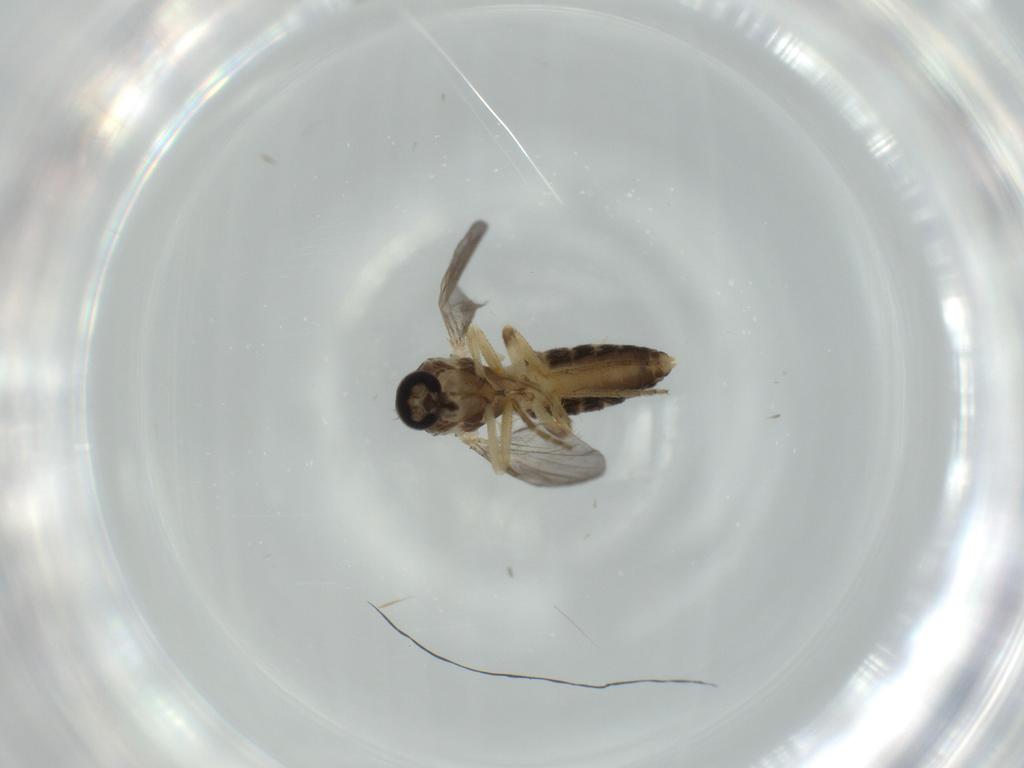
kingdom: Animalia
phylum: Arthropoda
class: Insecta
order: Diptera
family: Ceratopogonidae
